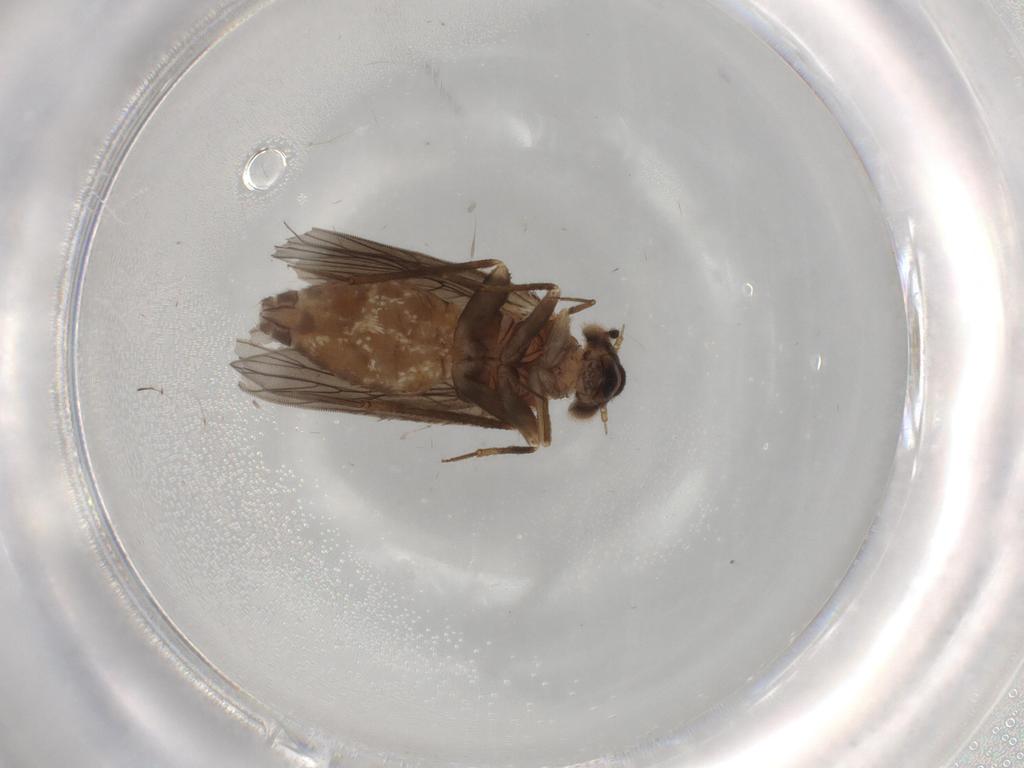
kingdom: Animalia
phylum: Arthropoda
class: Insecta
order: Psocodea
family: Lepidopsocidae
